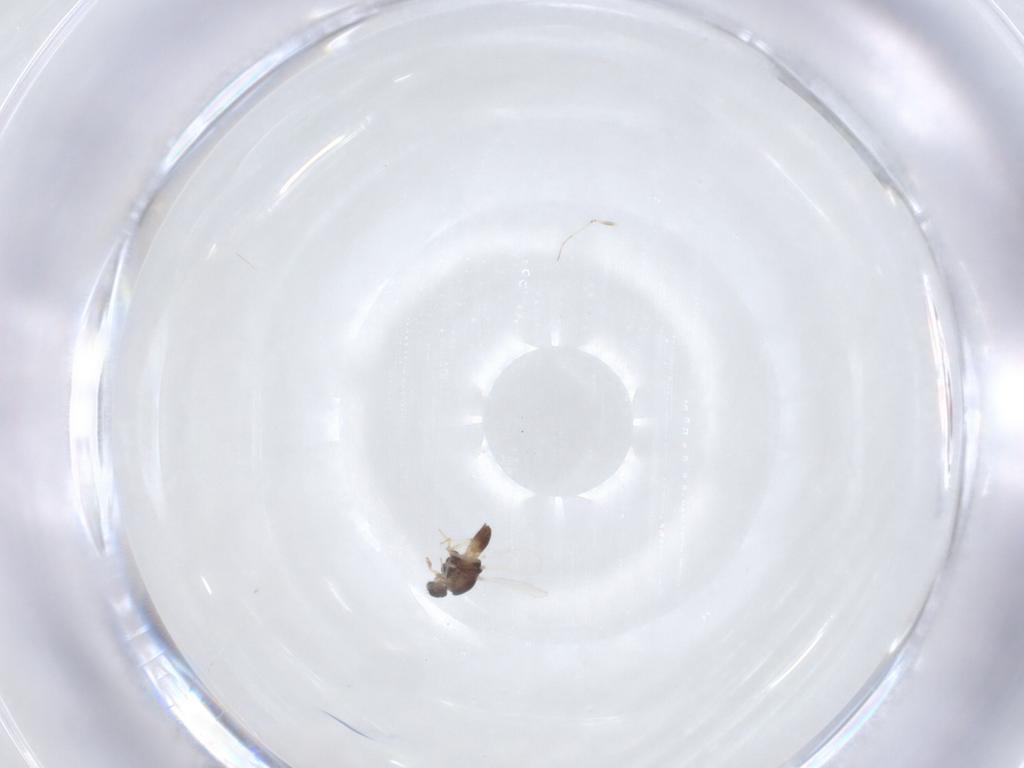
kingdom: Animalia
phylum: Arthropoda
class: Insecta
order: Diptera
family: Chironomidae
